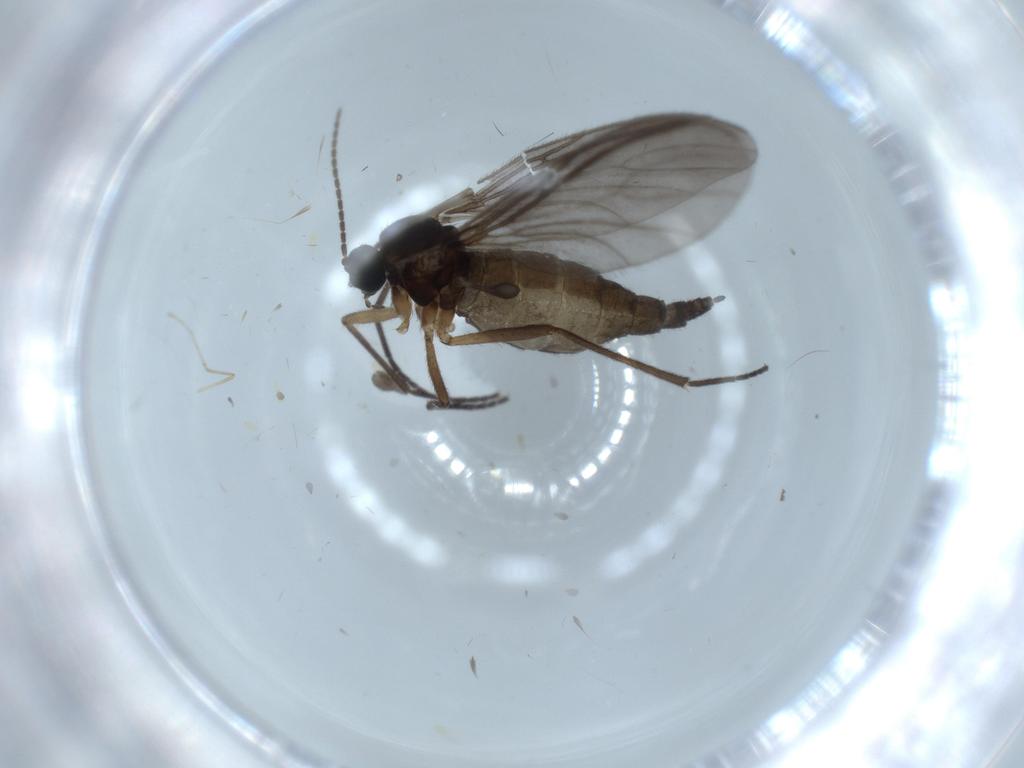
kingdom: Animalia
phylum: Arthropoda
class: Insecta
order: Diptera
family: Sciaridae
